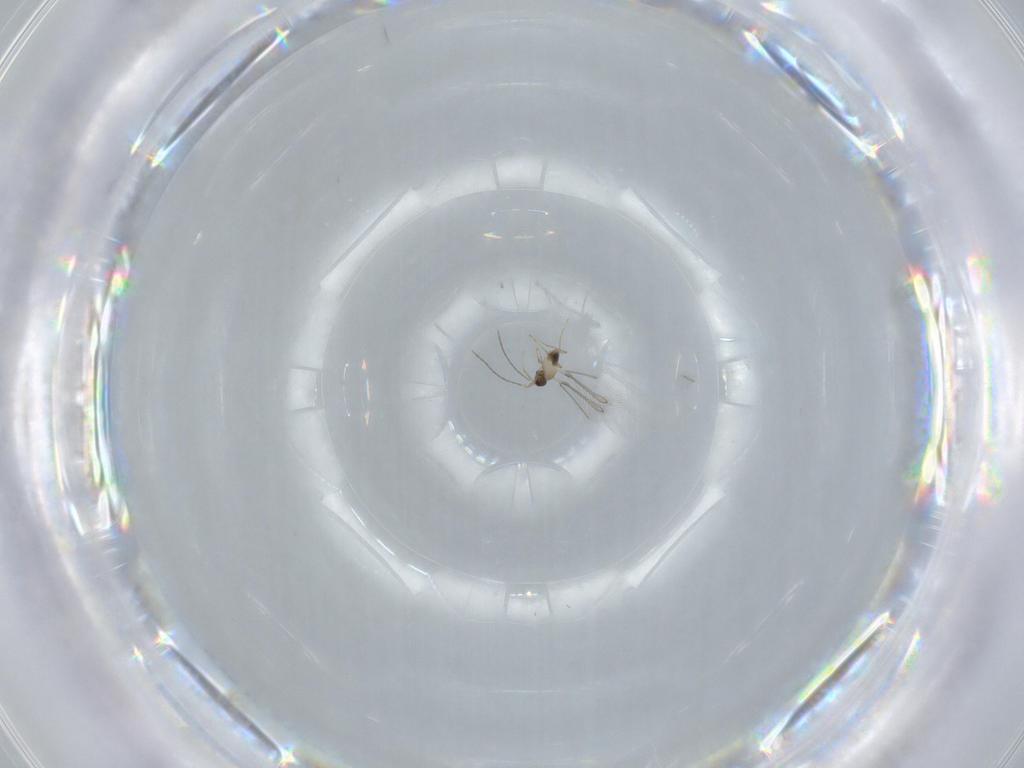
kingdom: Animalia
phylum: Arthropoda
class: Insecta
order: Hymenoptera
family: Mymaridae
